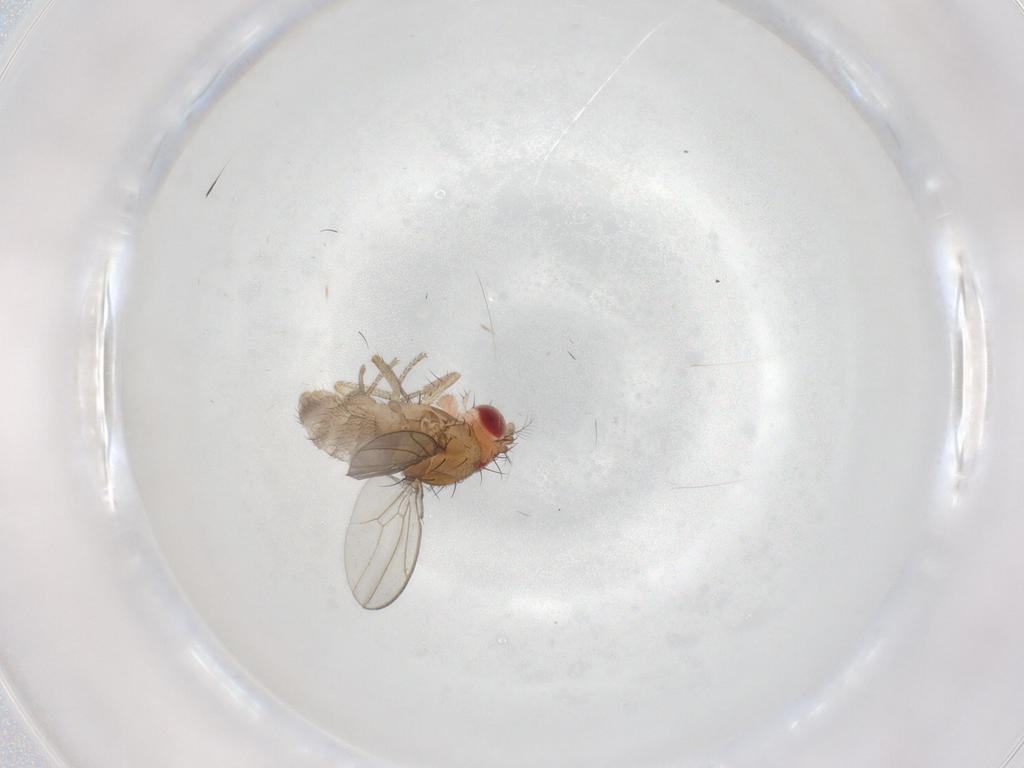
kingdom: Animalia
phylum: Arthropoda
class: Insecta
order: Diptera
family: Drosophilidae
